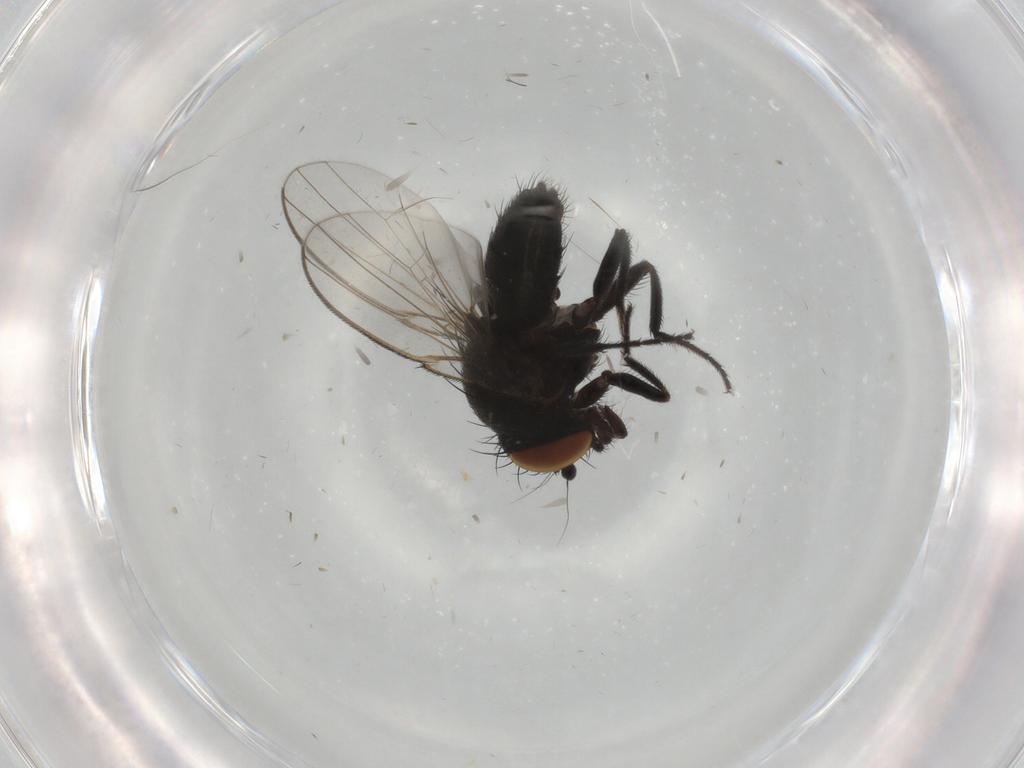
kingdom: Animalia
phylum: Arthropoda
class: Insecta
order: Diptera
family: Milichiidae
